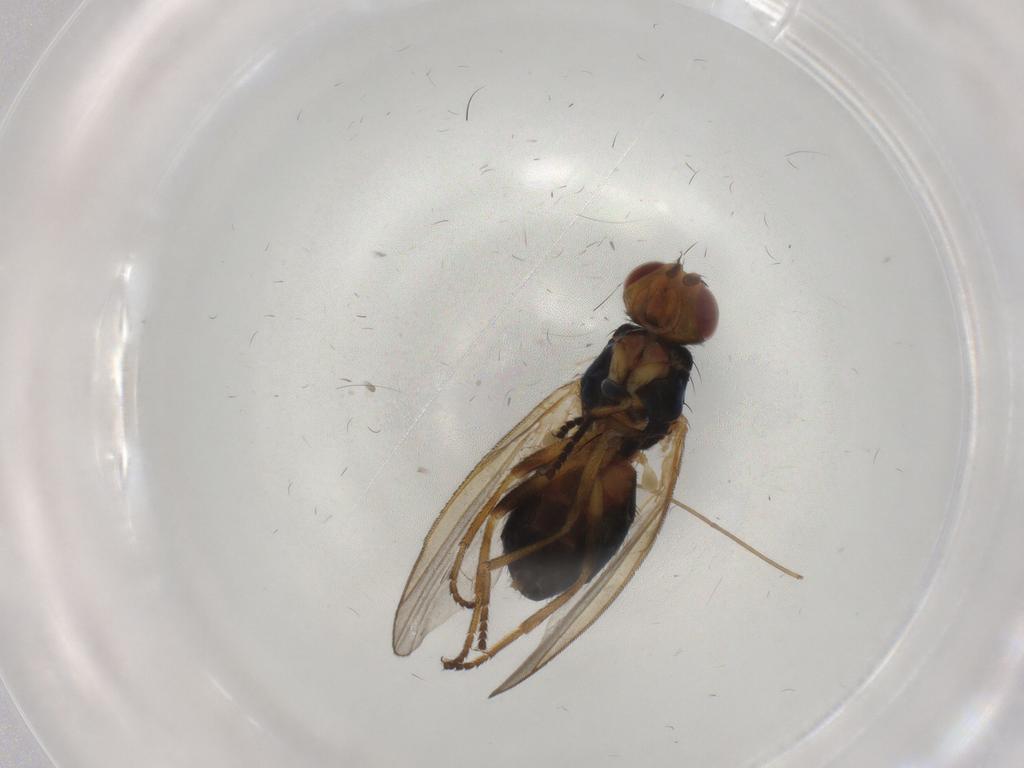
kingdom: Animalia
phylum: Arthropoda
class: Insecta
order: Diptera
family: Piophilidae
